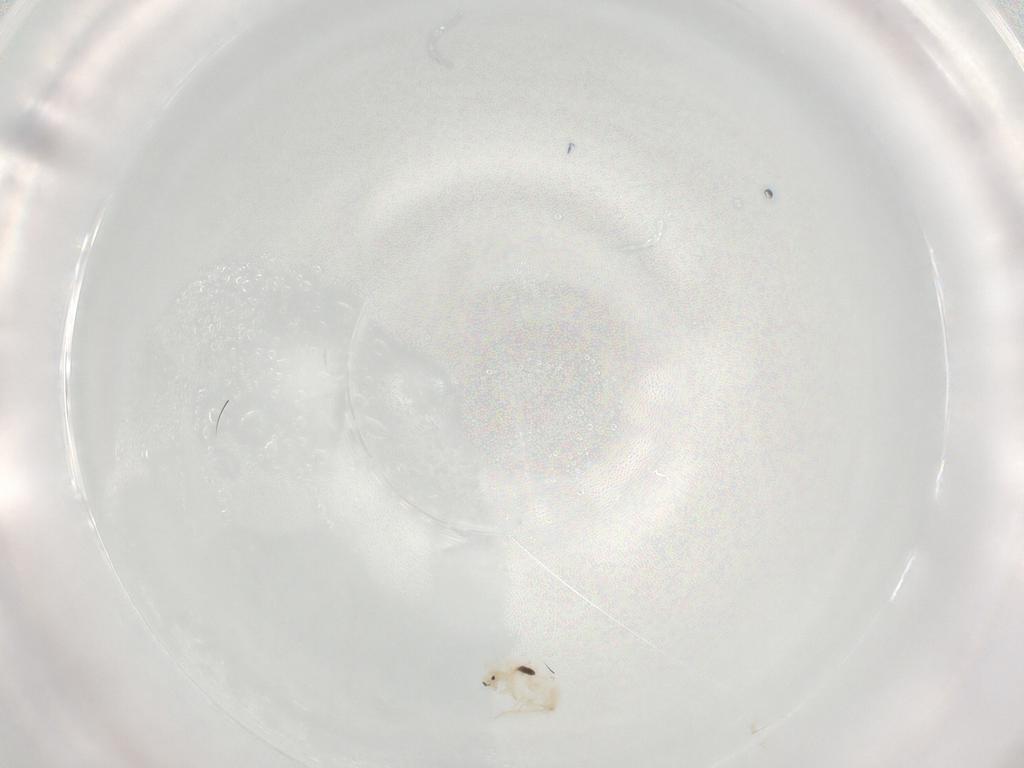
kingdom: Animalia
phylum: Arthropoda
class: Collembola
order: Entomobryomorpha
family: Entomobryidae
